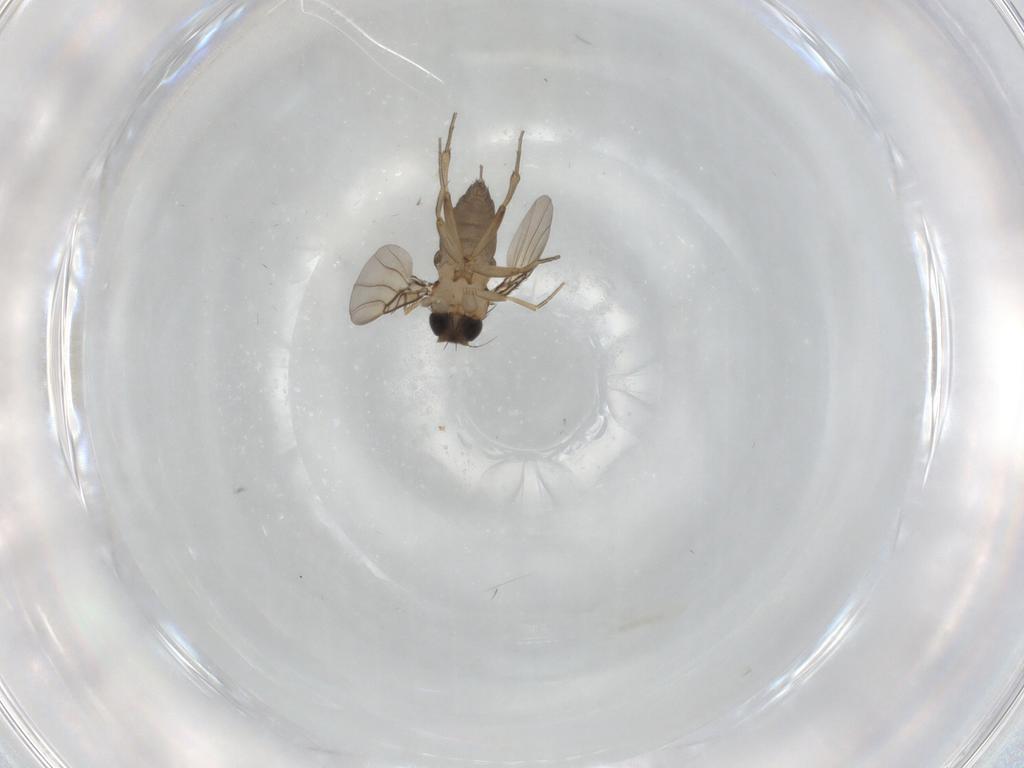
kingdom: Animalia
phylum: Arthropoda
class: Insecta
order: Diptera
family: Phoridae
